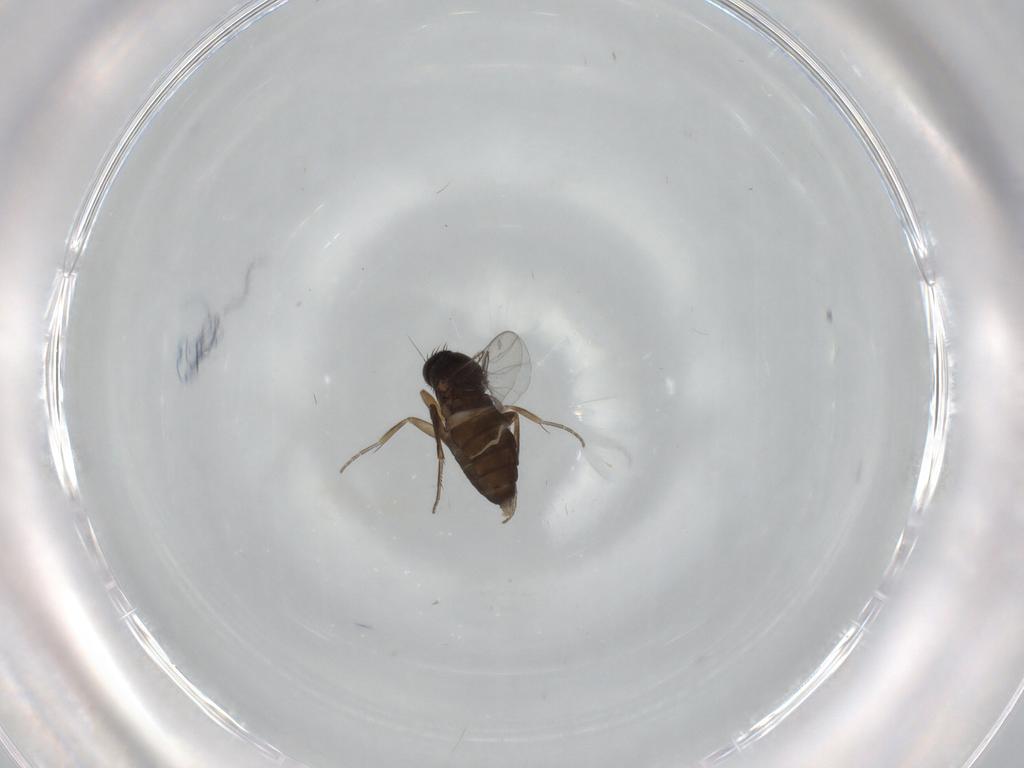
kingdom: Animalia
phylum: Arthropoda
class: Insecta
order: Diptera
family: Phoridae
